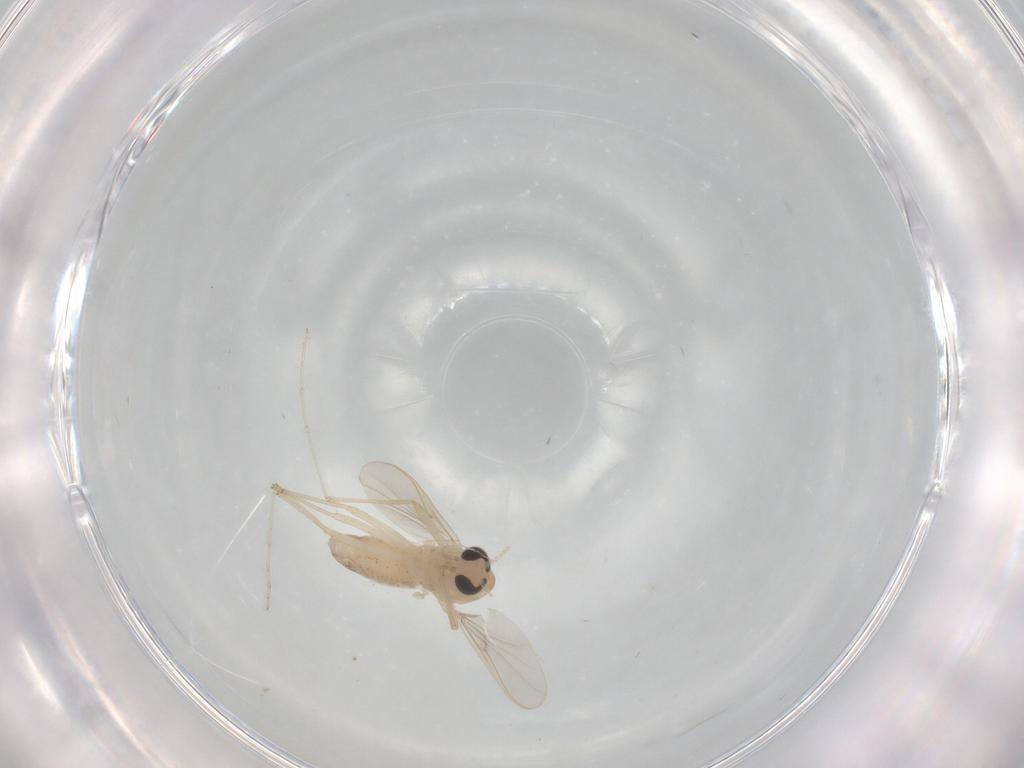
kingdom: Animalia
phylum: Arthropoda
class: Insecta
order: Diptera
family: Chironomidae
